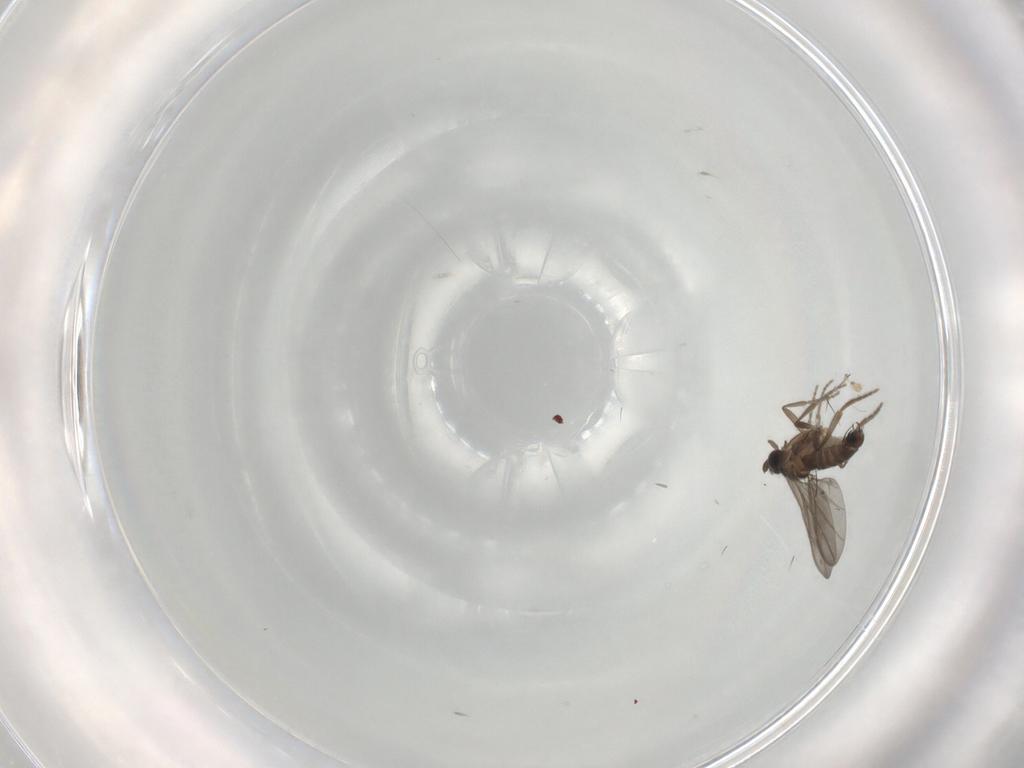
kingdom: Animalia
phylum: Arthropoda
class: Insecta
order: Diptera
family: Phoridae
